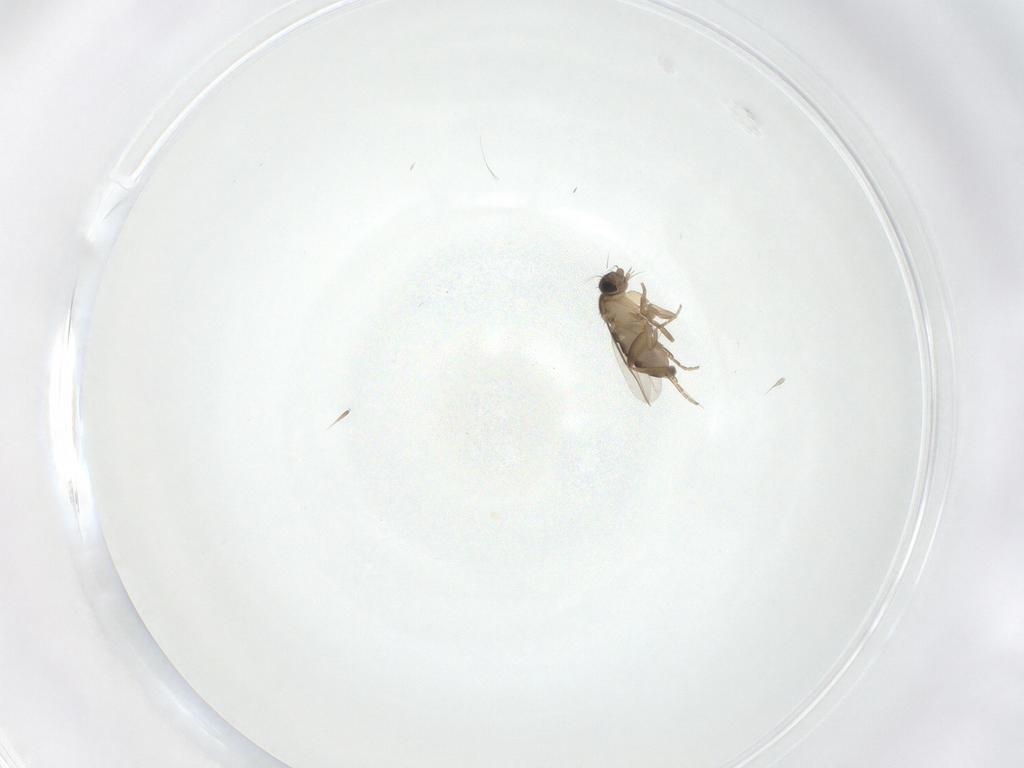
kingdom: Animalia
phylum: Arthropoda
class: Insecta
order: Diptera
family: Phoridae
